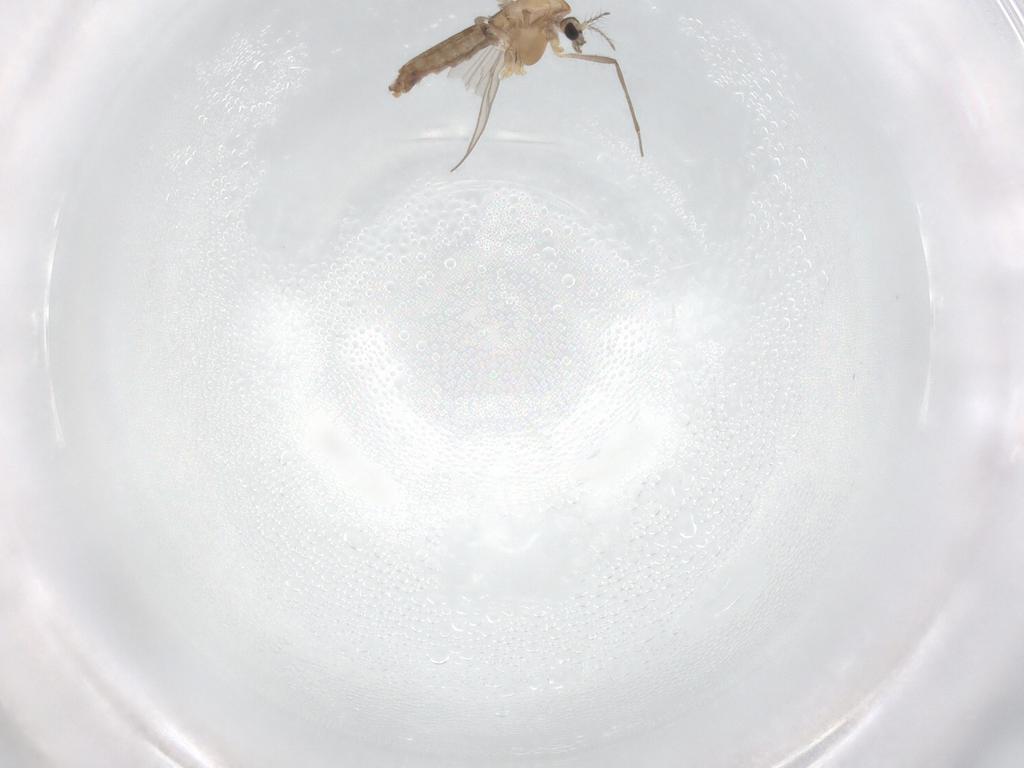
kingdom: Animalia
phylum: Arthropoda
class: Insecta
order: Diptera
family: Chironomidae
